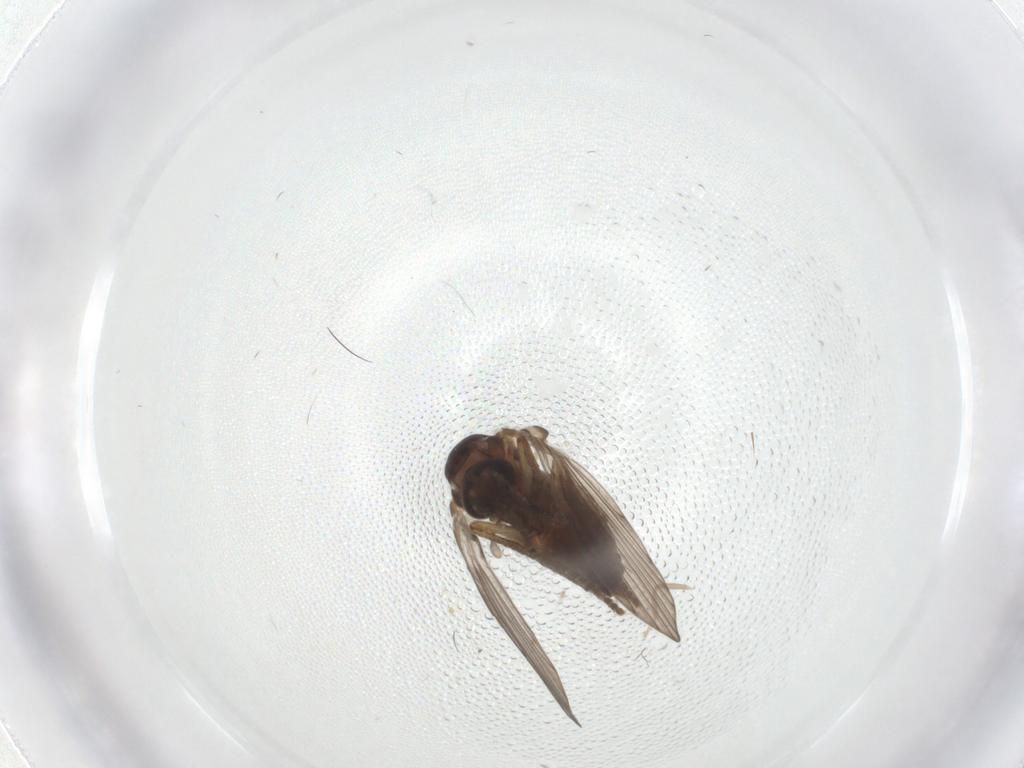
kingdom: Animalia
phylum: Arthropoda
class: Insecta
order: Diptera
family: Psychodidae
